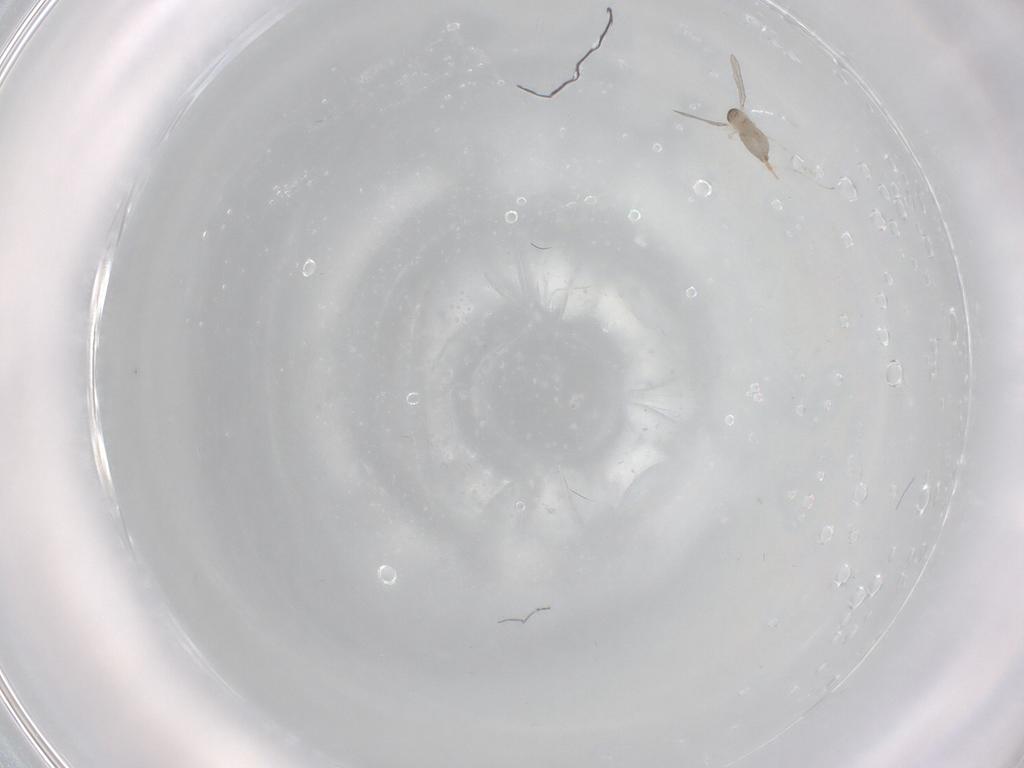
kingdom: Animalia
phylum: Arthropoda
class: Insecta
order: Diptera
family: Cecidomyiidae
